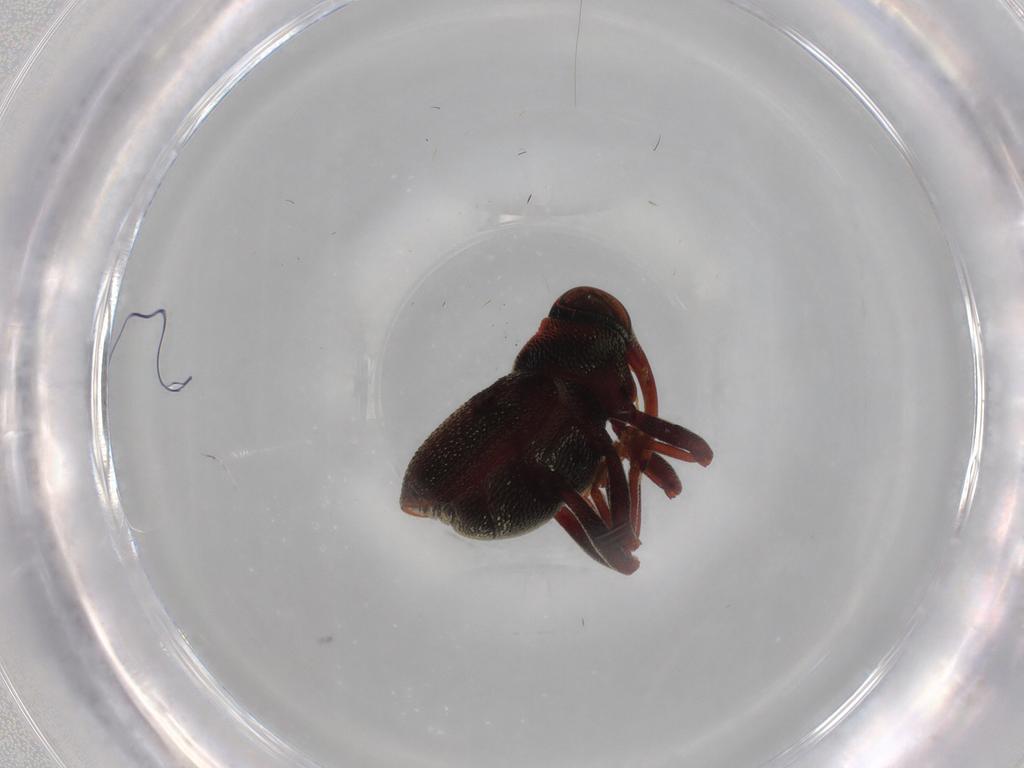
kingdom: Animalia
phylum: Arthropoda
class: Insecta
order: Coleoptera
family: Curculionidae
